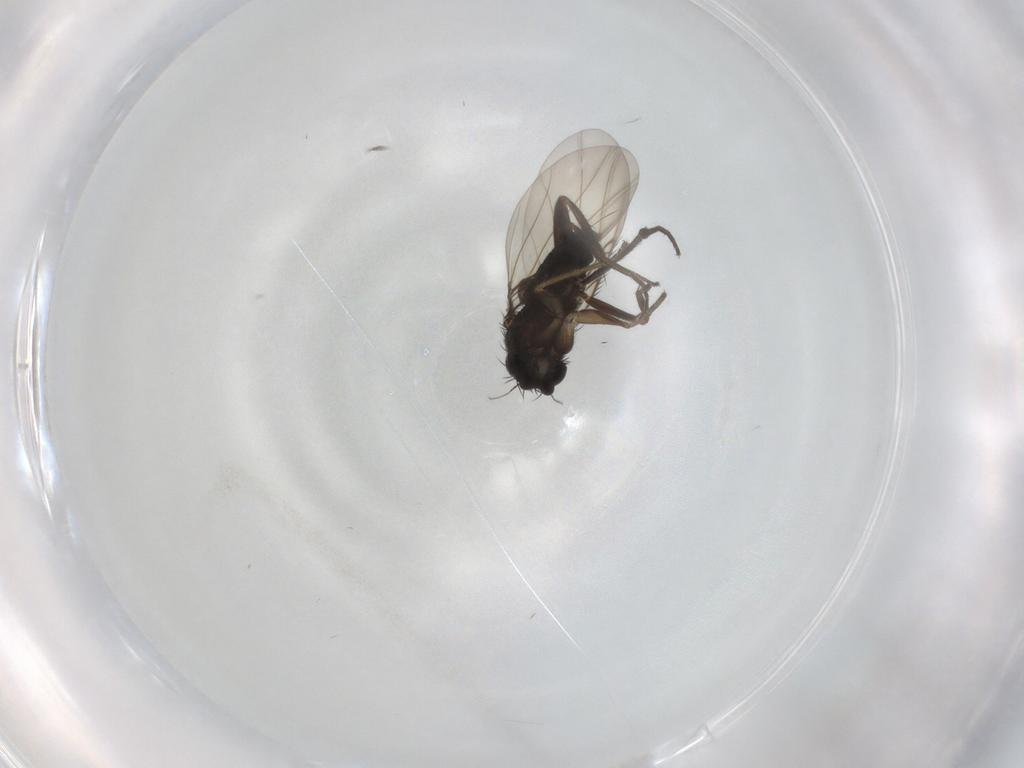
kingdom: Animalia
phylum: Arthropoda
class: Insecta
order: Diptera
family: Phoridae
